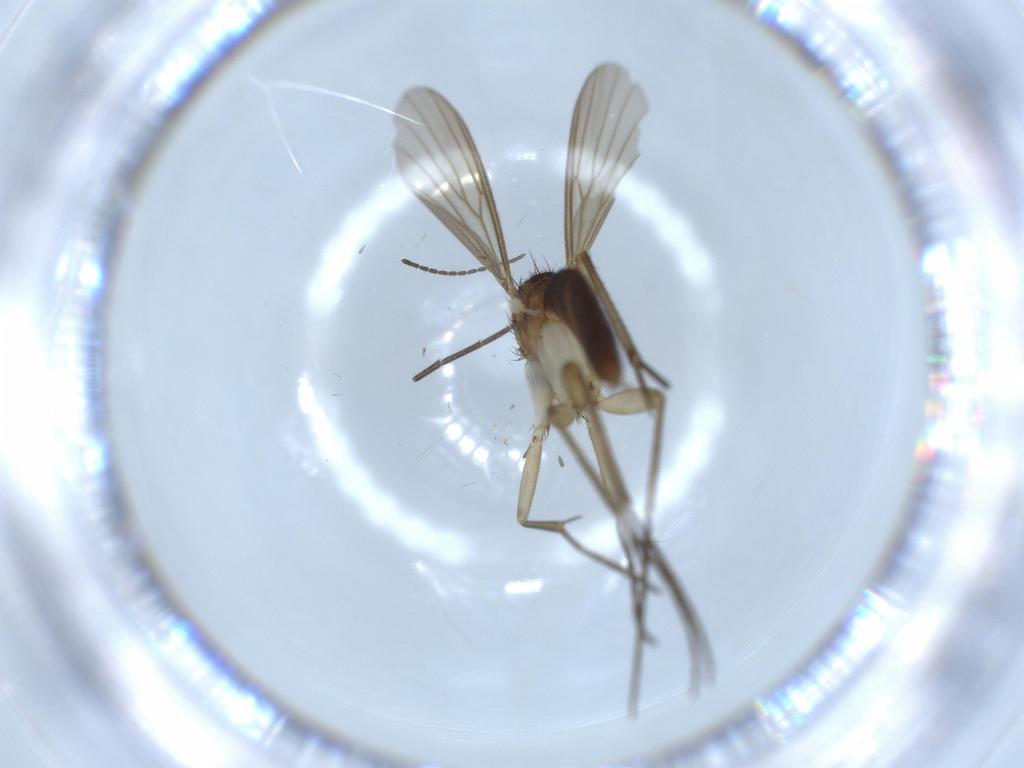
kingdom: Animalia
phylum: Arthropoda
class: Insecta
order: Diptera
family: Mycetophilidae
